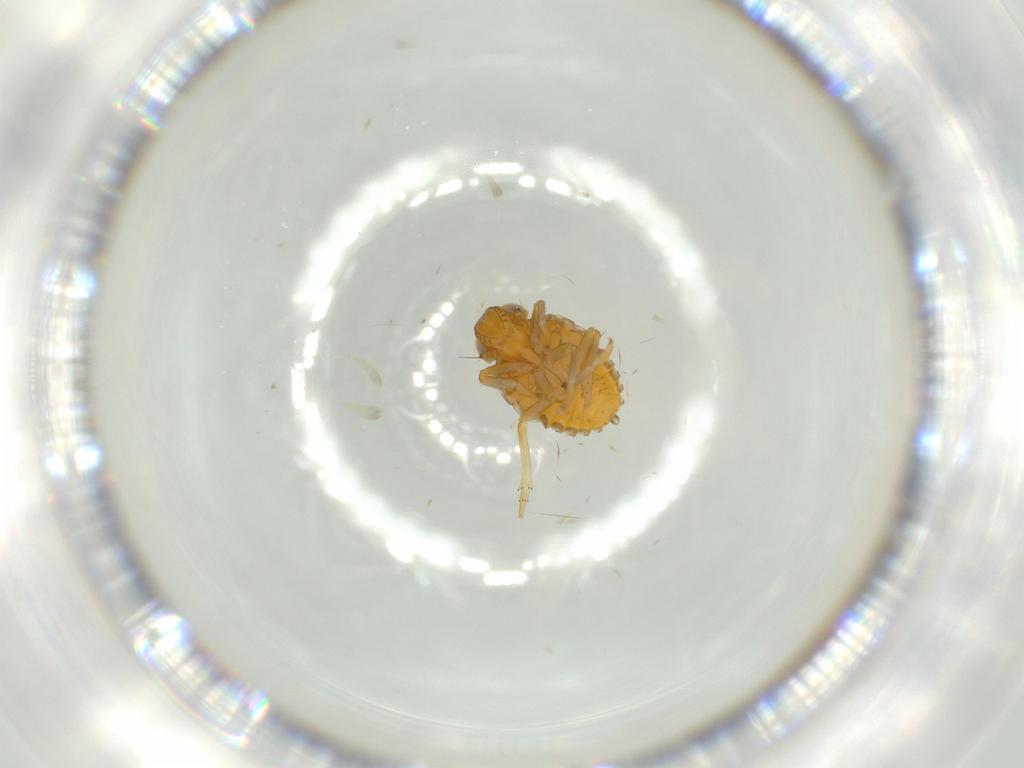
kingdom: Animalia
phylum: Arthropoda
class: Insecta
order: Hemiptera
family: Issidae
